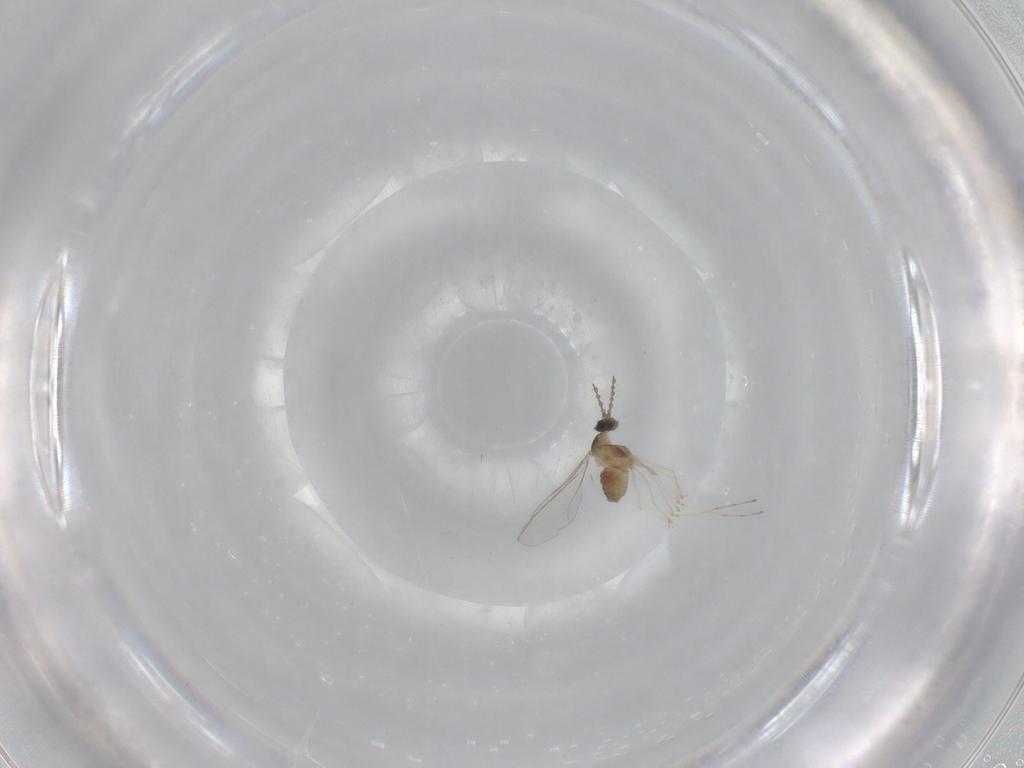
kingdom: Animalia
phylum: Arthropoda
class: Insecta
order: Diptera
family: Cecidomyiidae
